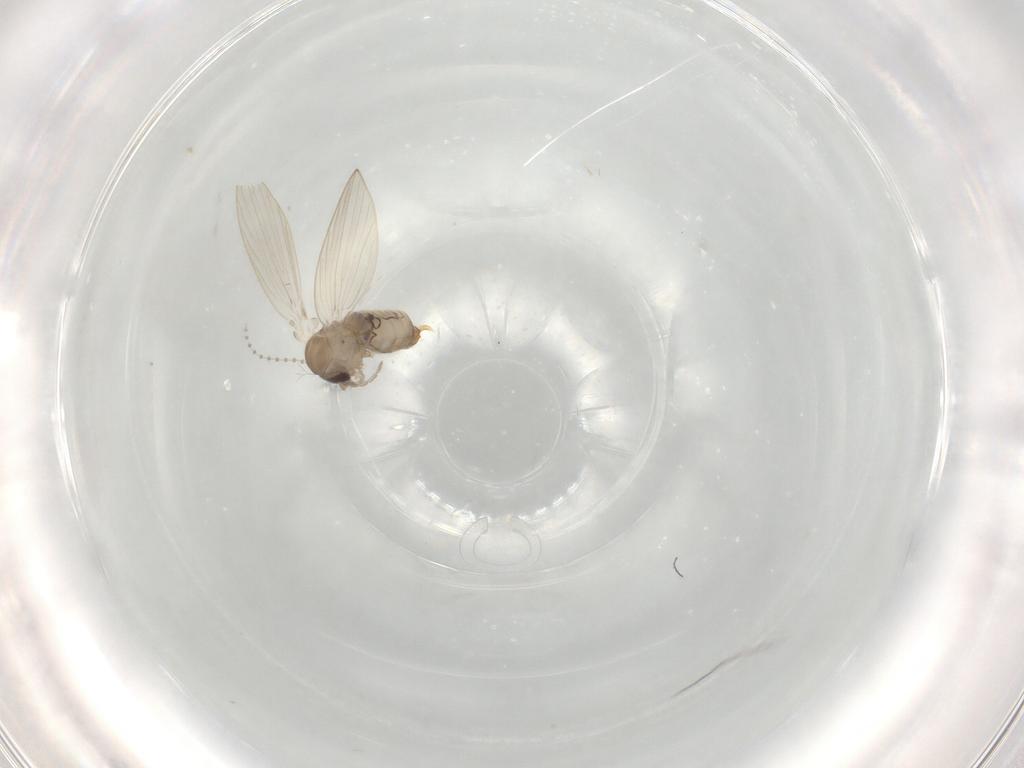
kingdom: Animalia
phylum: Arthropoda
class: Insecta
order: Diptera
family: Psychodidae
